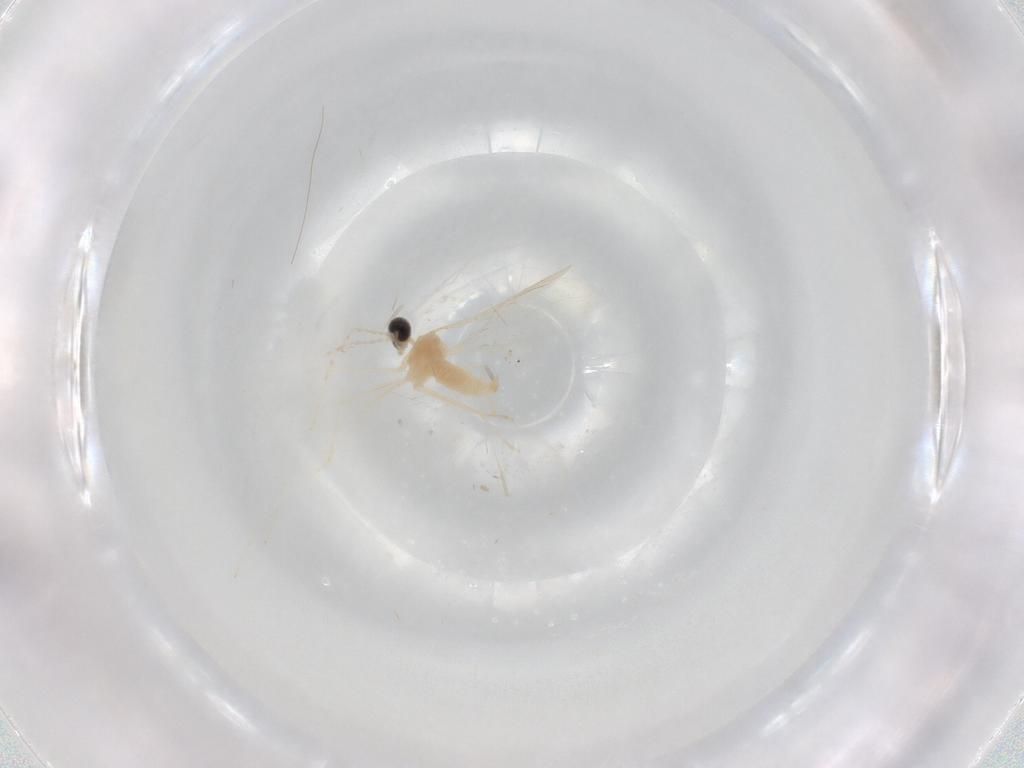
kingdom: Animalia
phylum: Arthropoda
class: Insecta
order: Diptera
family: Cecidomyiidae
